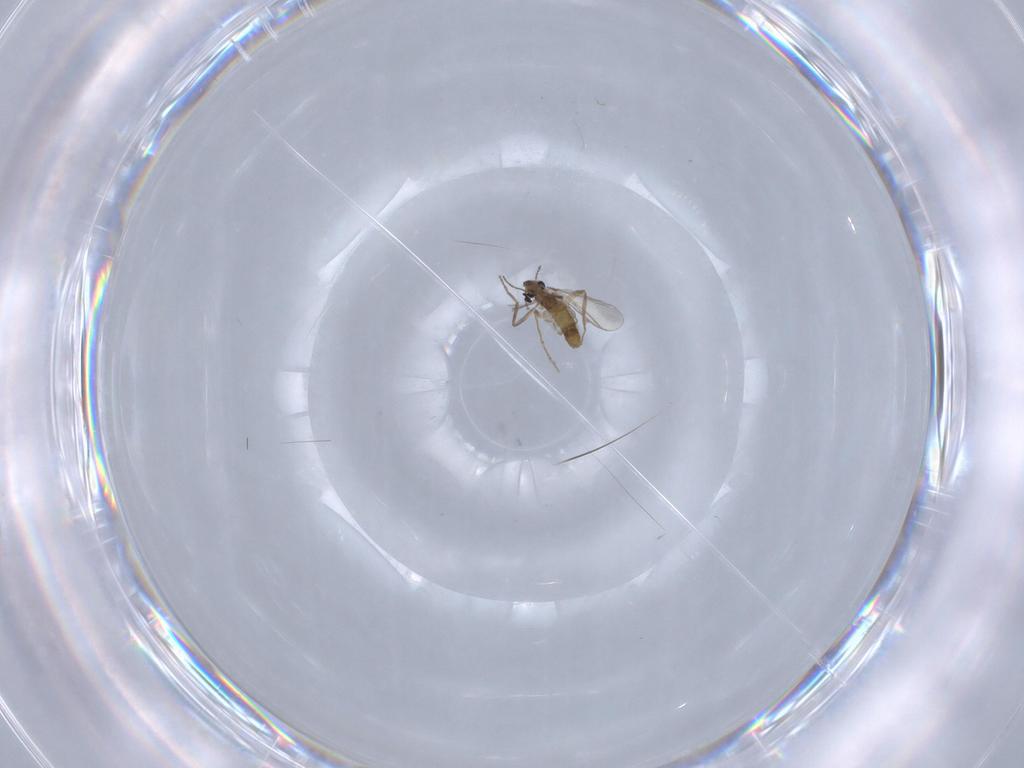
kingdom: Animalia
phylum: Arthropoda
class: Insecta
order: Diptera
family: Chironomidae
